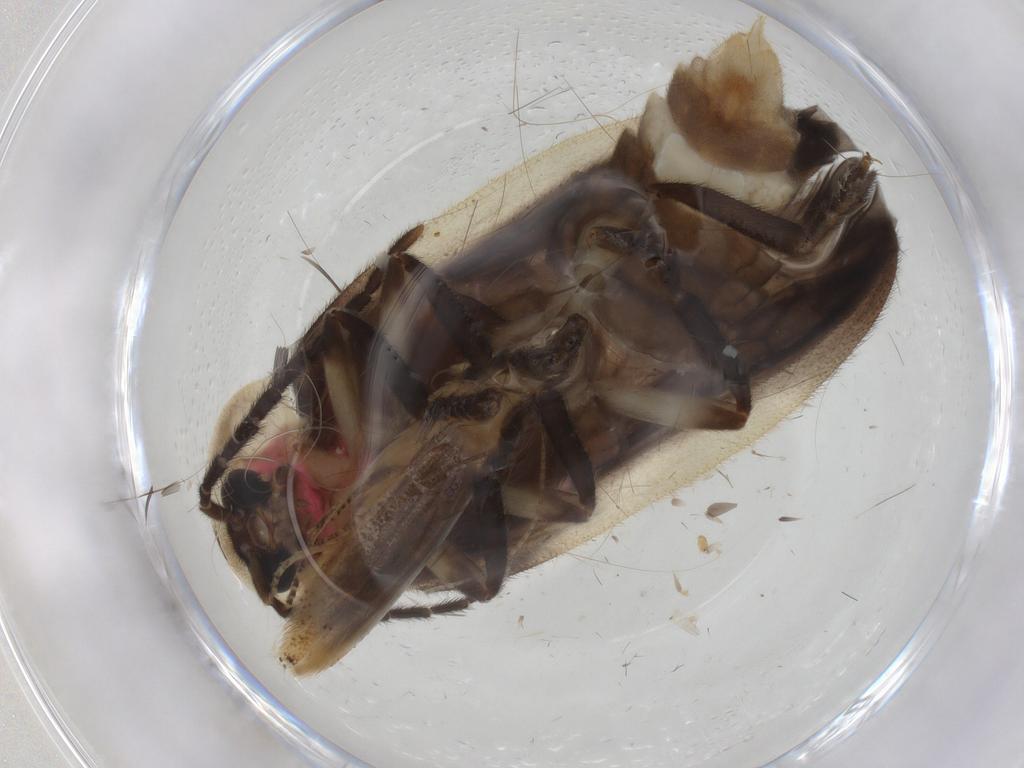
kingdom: Animalia
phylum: Arthropoda
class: Insecta
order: Coleoptera
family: Lampyridae
